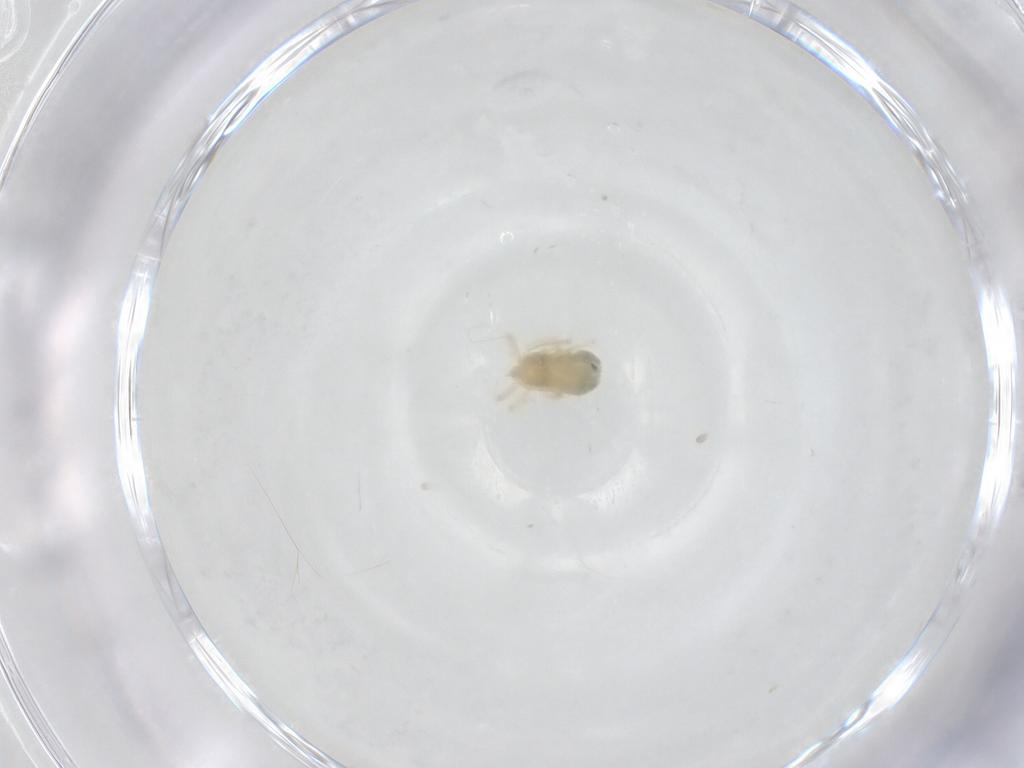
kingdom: Animalia
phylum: Arthropoda
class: Arachnida
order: Trombidiformes
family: Anystidae
